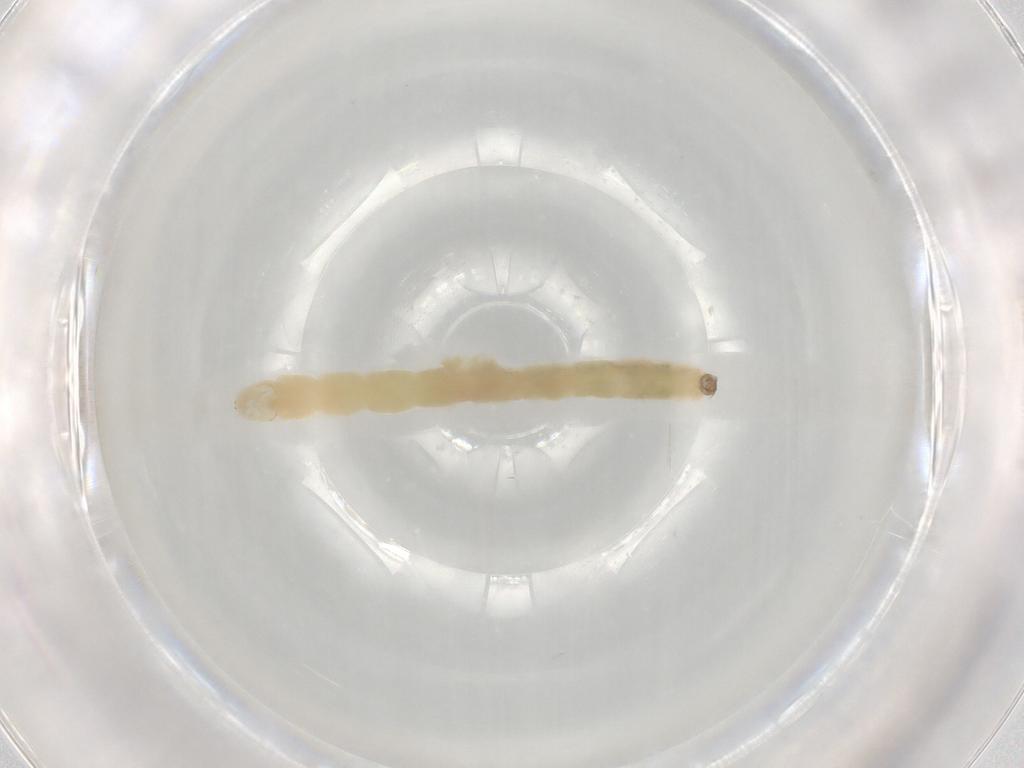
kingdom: Animalia
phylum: Arthropoda
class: Insecta
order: Diptera
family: Chironomidae
